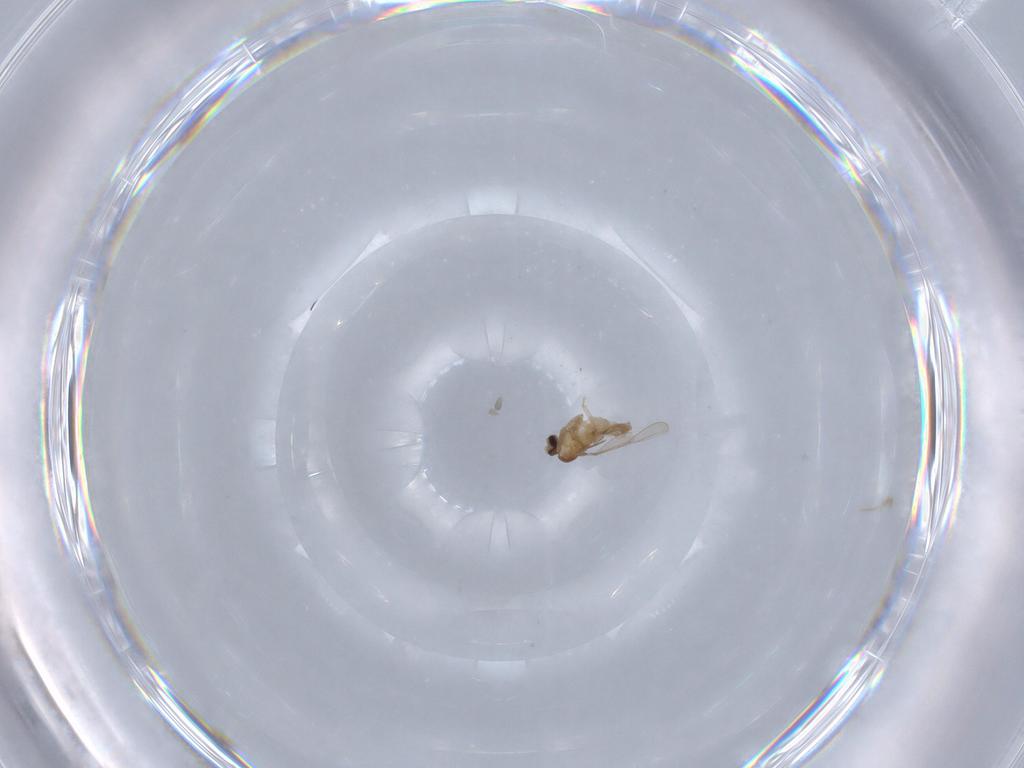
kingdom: Animalia
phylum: Arthropoda
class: Insecta
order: Diptera
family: Cecidomyiidae
